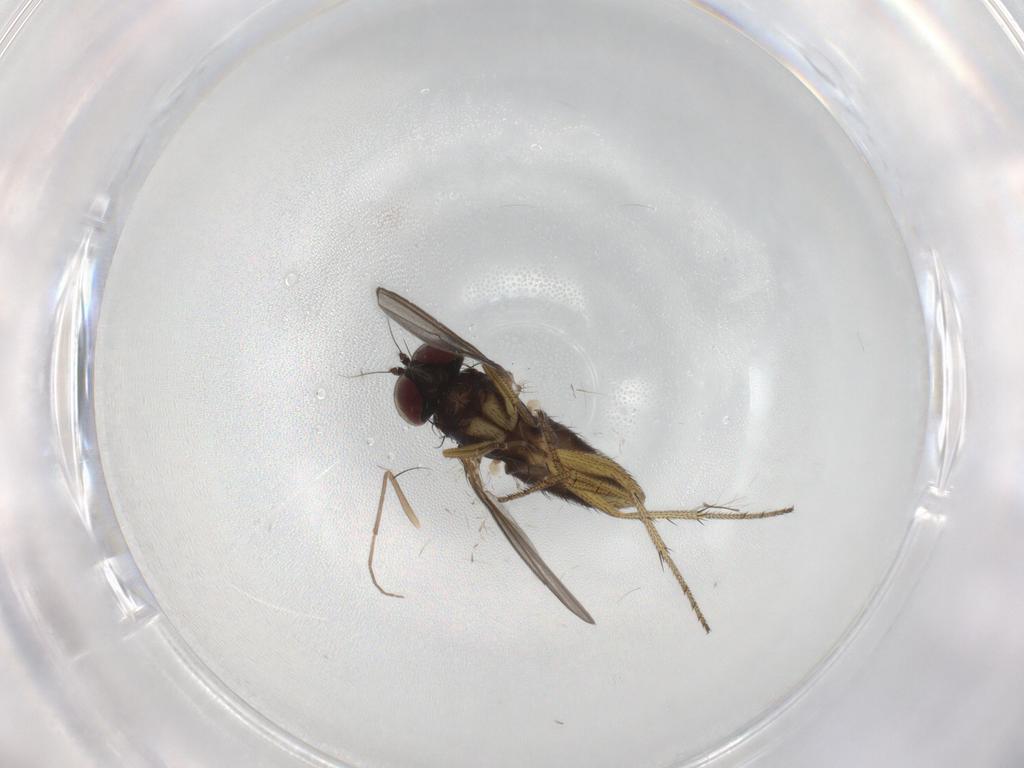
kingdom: Animalia
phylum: Arthropoda
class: Insecta
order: Diptera
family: Chironomidae
